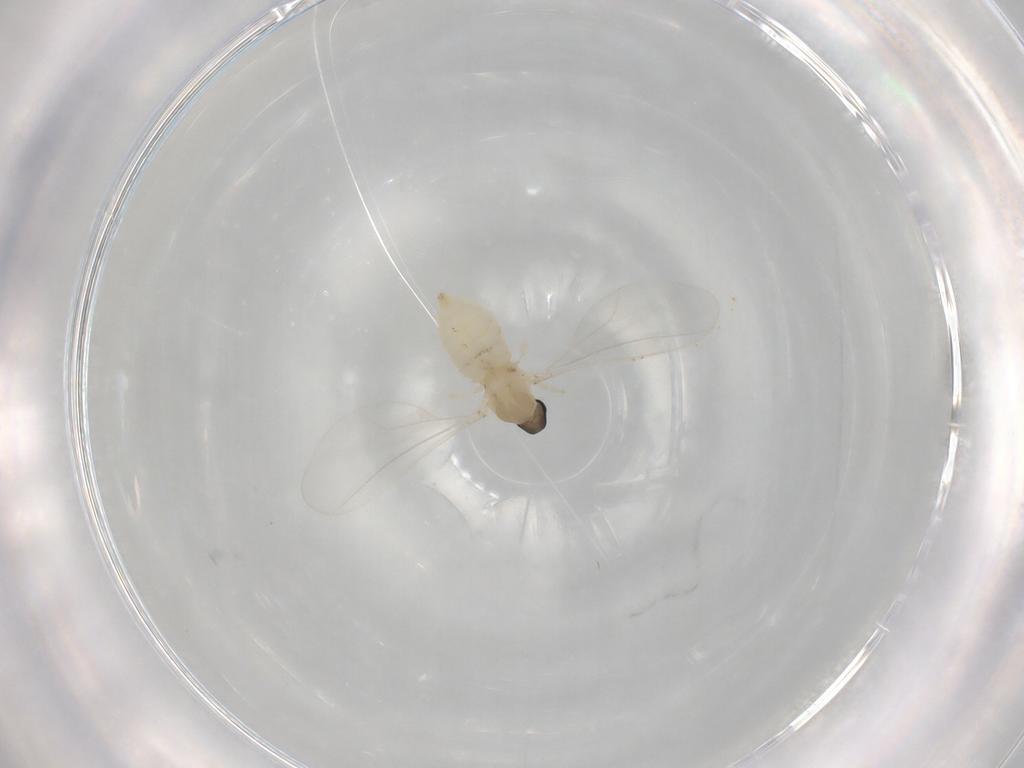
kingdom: Animalia
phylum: Arthropoda
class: Insecta
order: Diptera
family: Cecidomyiidae
